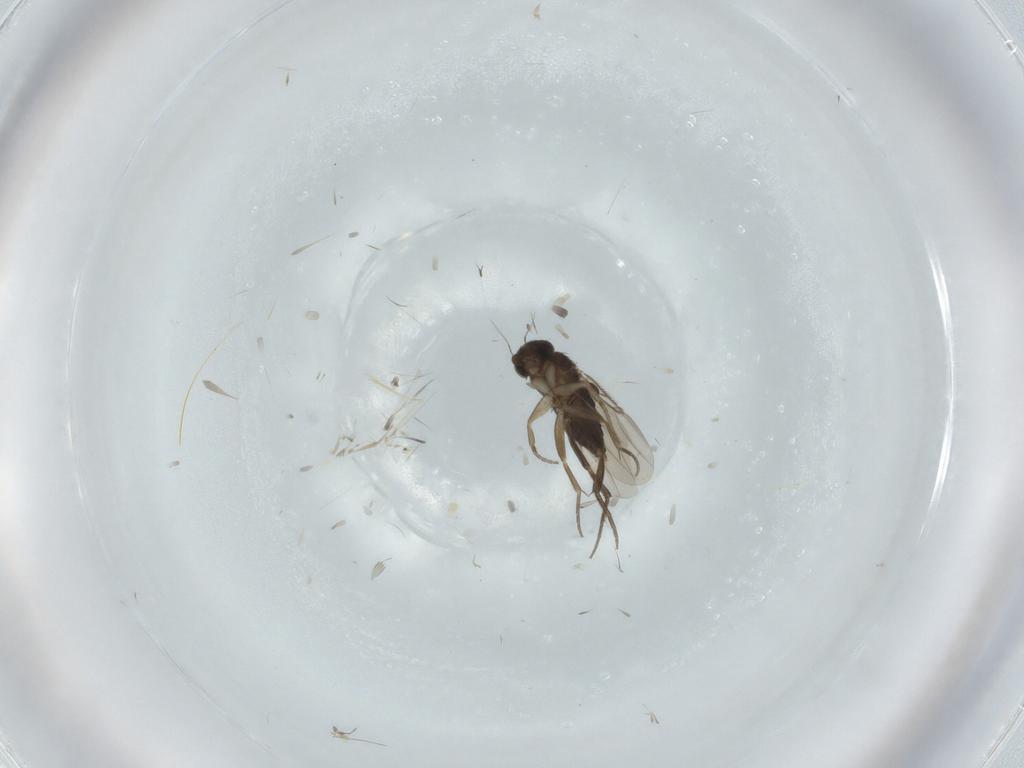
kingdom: Animalia
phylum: Arthropoda
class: Insecta
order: Diptera
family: Phoridae
